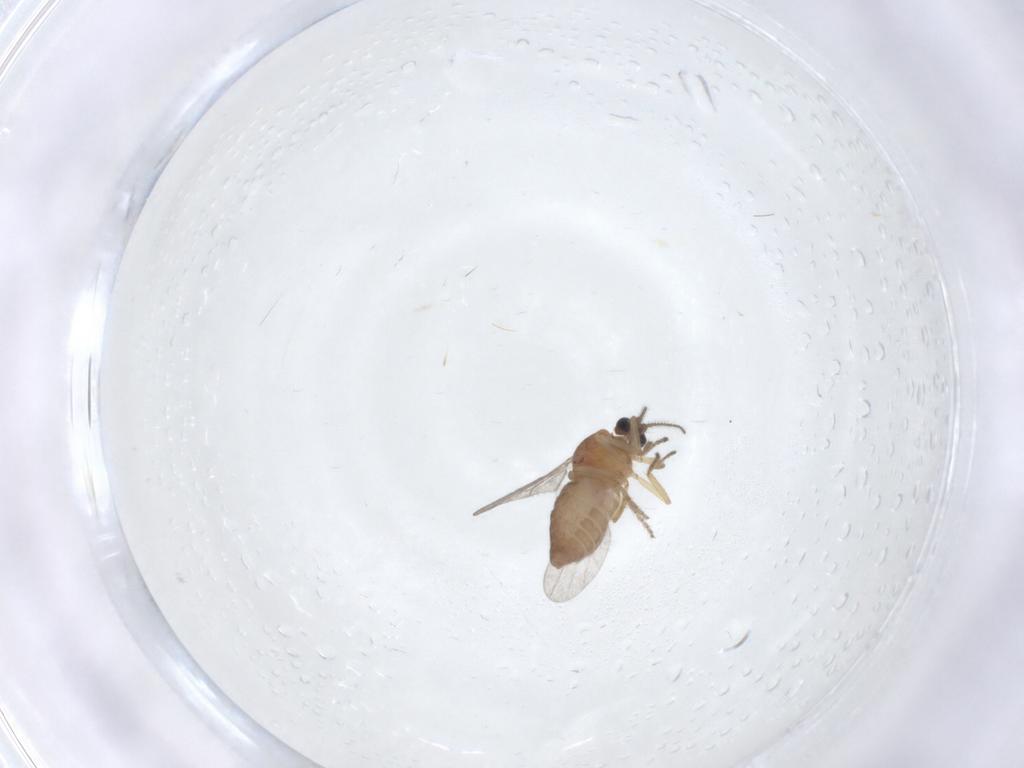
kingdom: Animalia
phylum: Arthropoda
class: Insecta
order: Diptera
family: Ceratopogonidae
